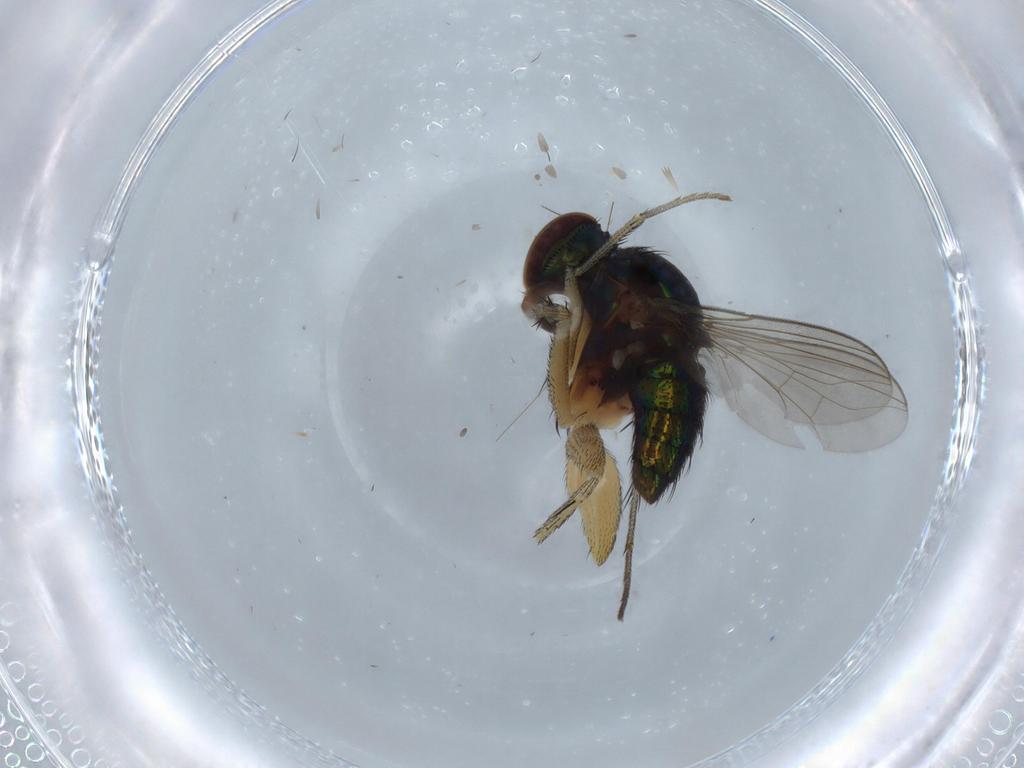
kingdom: Animalia
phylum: Arthropoda
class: Insecta
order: Diptera
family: Dolichopodidae
